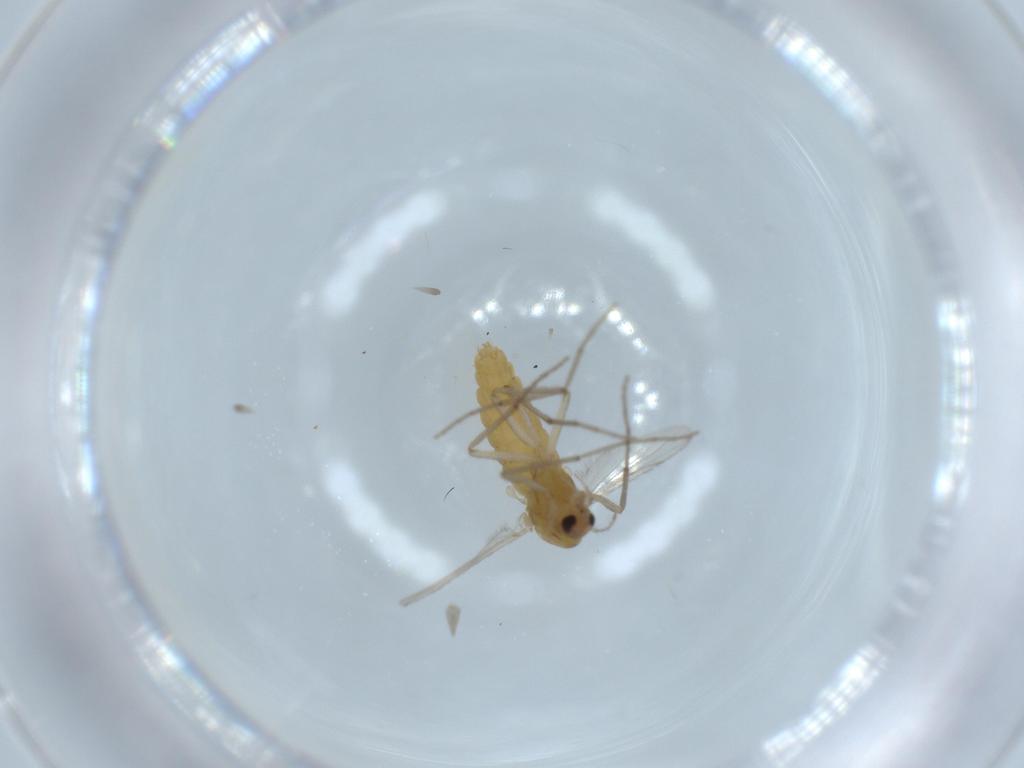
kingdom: Animalia
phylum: Arthropoda
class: Insecta
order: Diptera
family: Chironomidae
